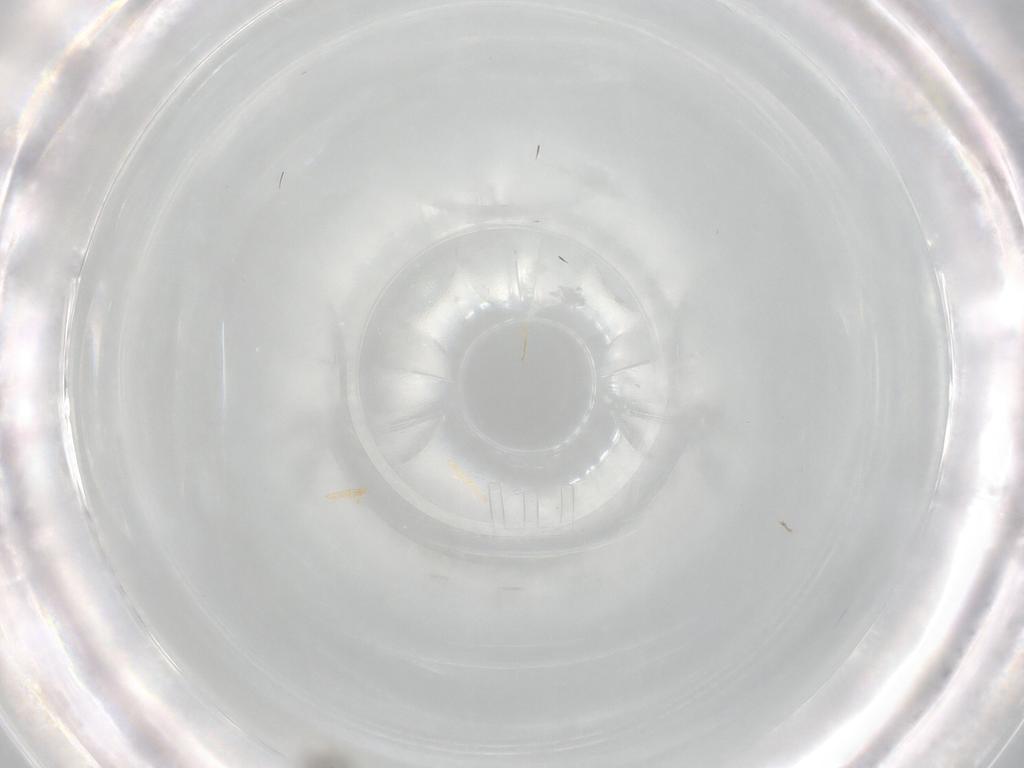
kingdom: Animalia
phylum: Arthropoda
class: Insecta
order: Diptera
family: Cecidomyiidae
